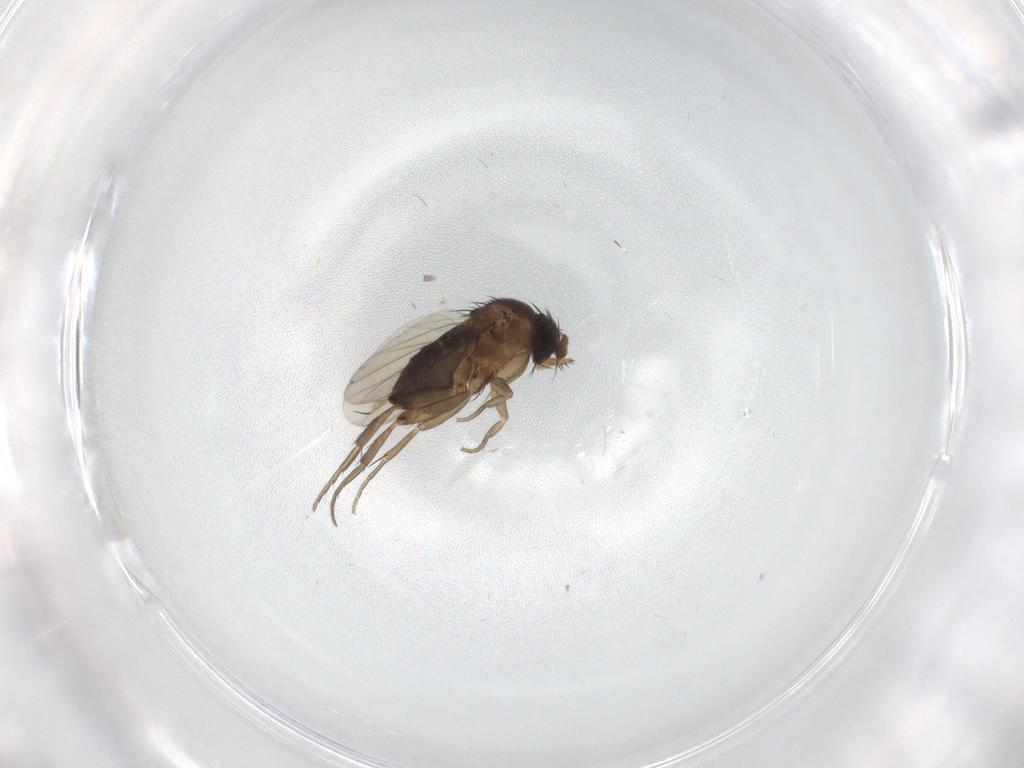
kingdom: Animalia
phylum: Arthropoda
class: Insecta
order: Diptera
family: Phoridae
